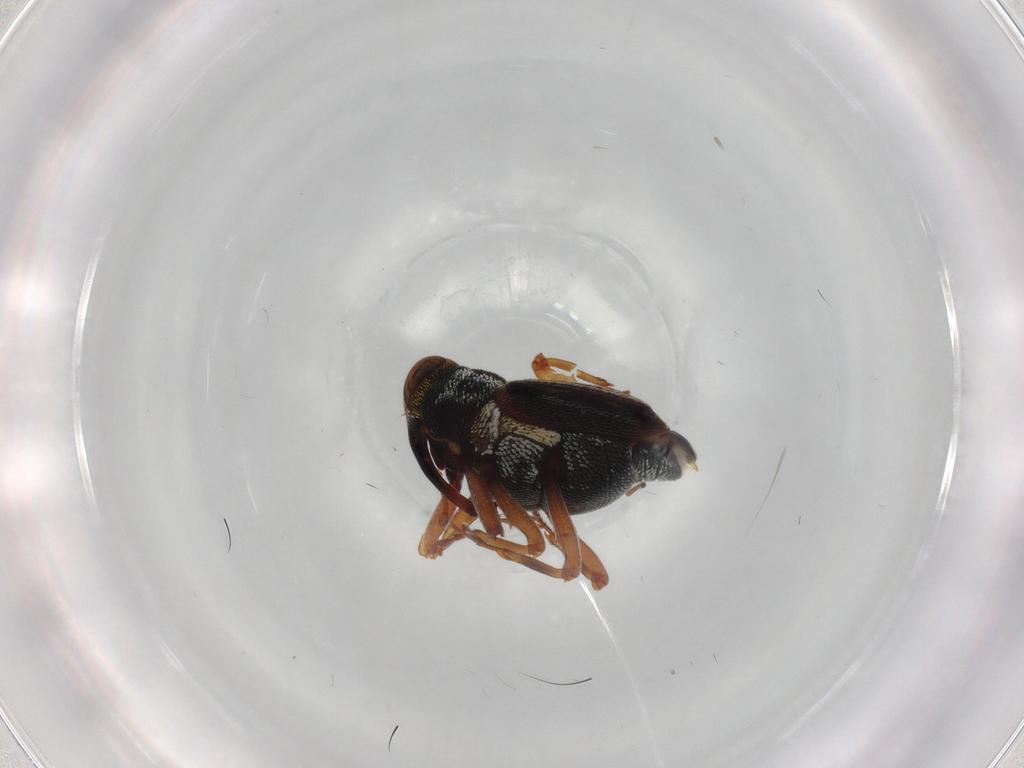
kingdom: Animalia
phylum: Arthropoda
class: Insecta
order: Coleoptera
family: Curculionidae
